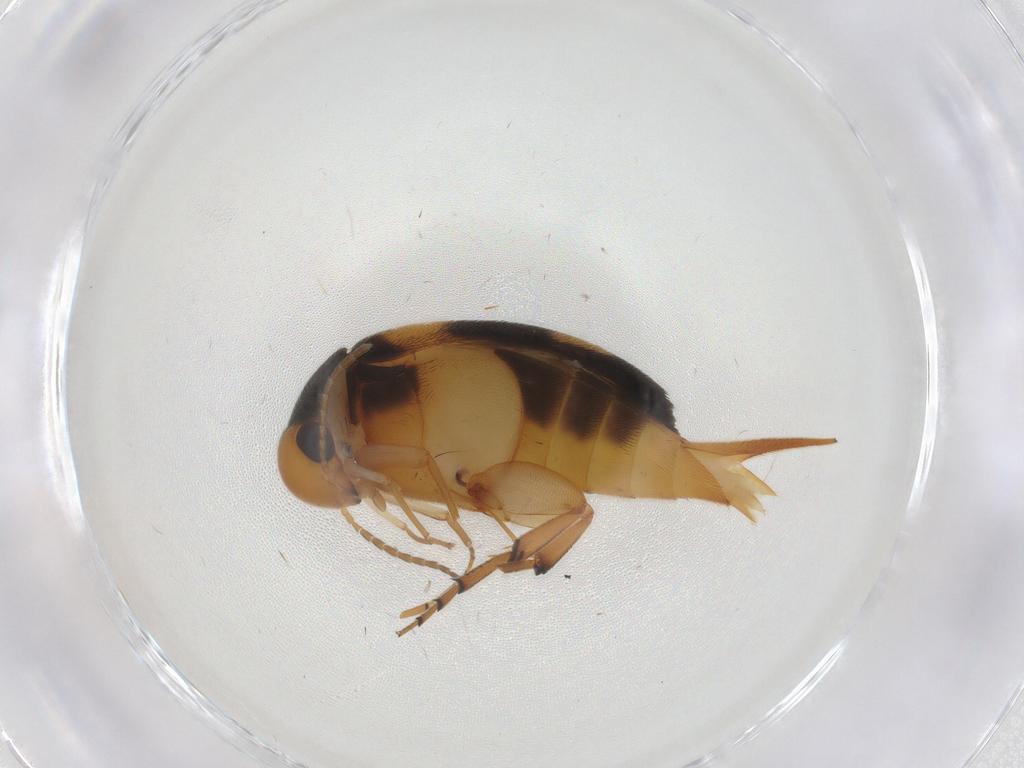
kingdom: Animalia
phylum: Arthropoda
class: Insecta
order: Coleoptera
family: Mordellidae
